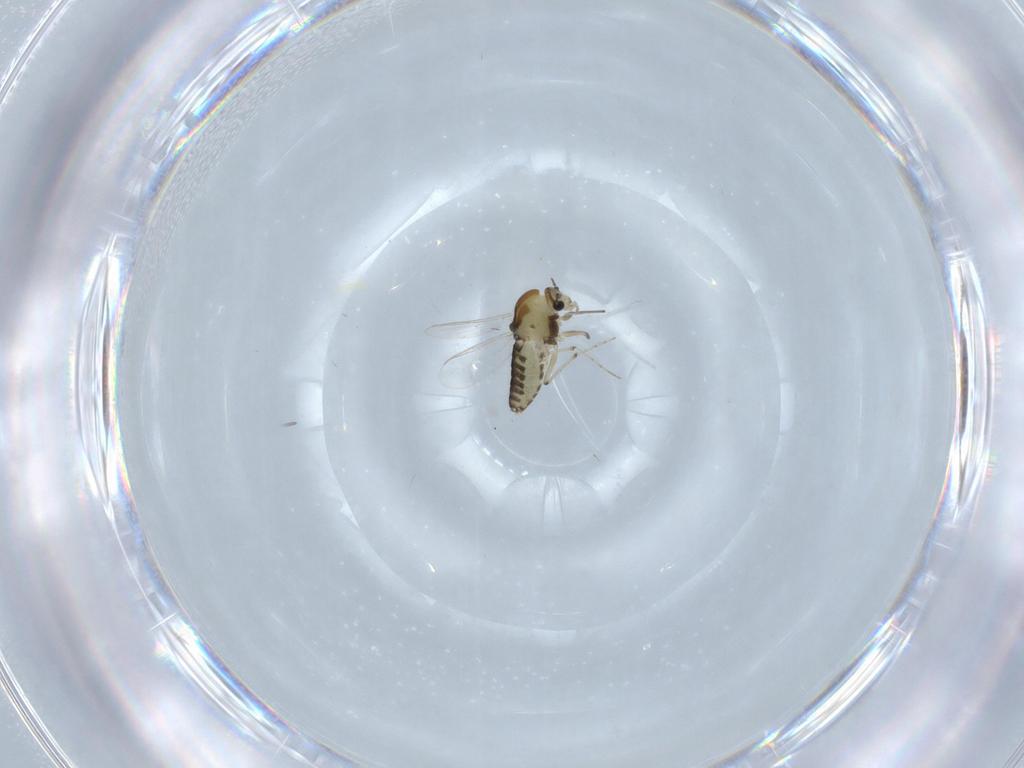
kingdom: Animalia
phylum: Arthropoda
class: Insecta
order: Diptera
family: Chironomidae
